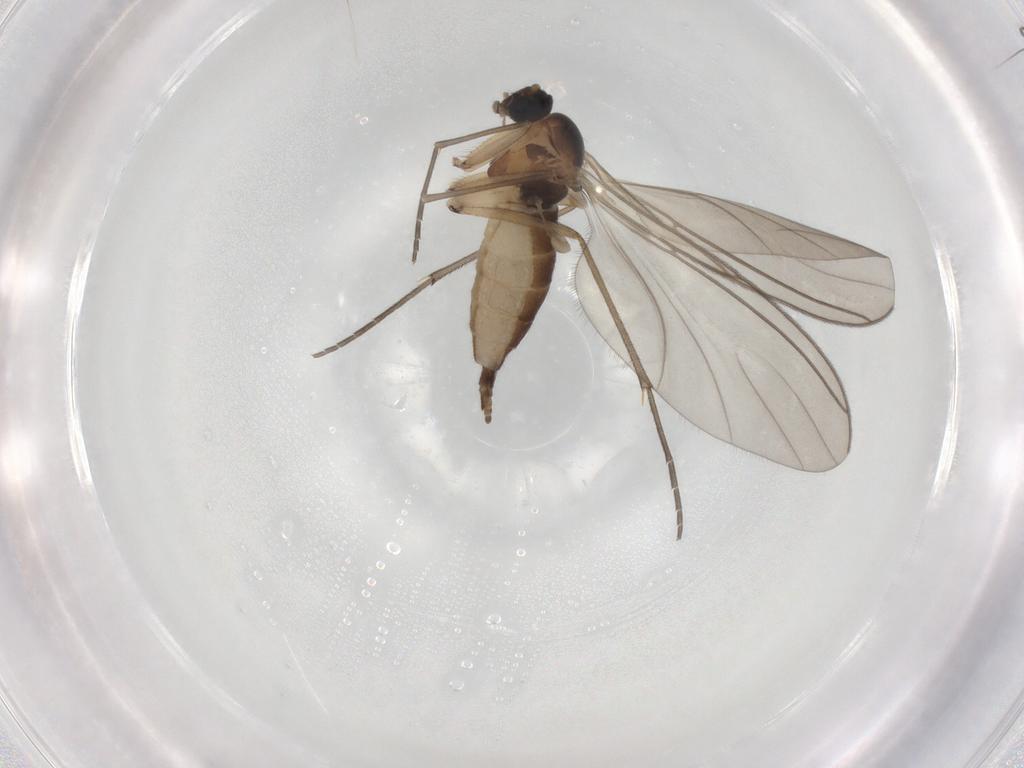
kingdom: Animalia
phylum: Arthropoda
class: Insecta
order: Diptera
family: Sciaridae
